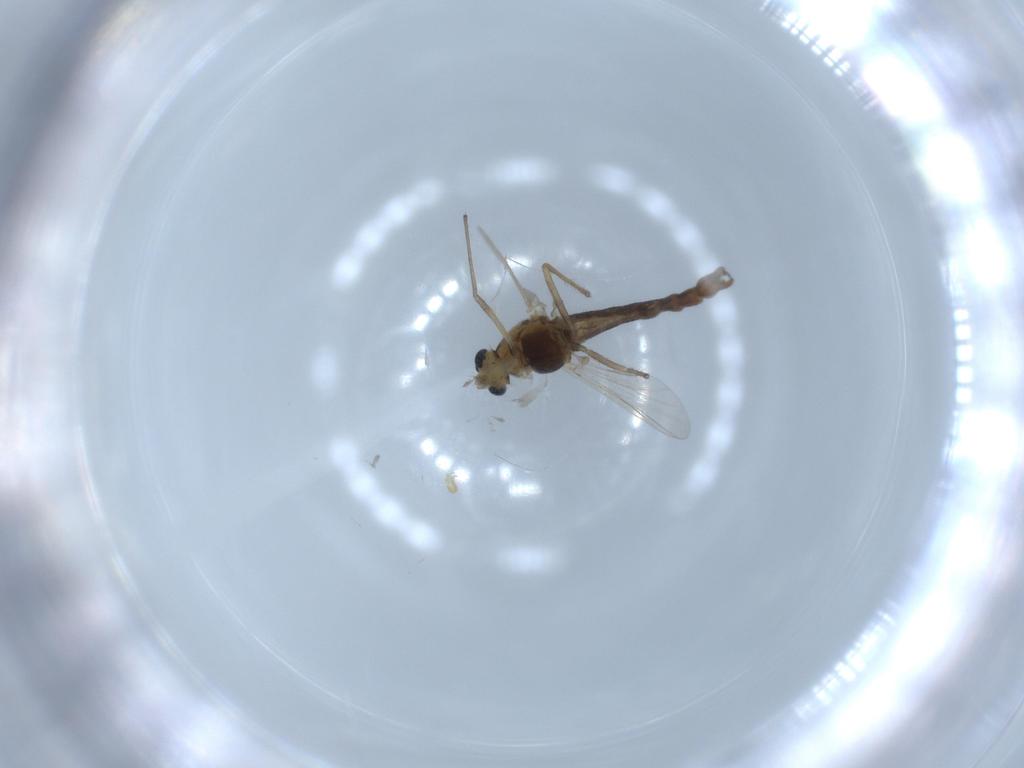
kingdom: Animalia
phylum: Arthropoda
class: Insecta
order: Diptera
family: Chironomidae
